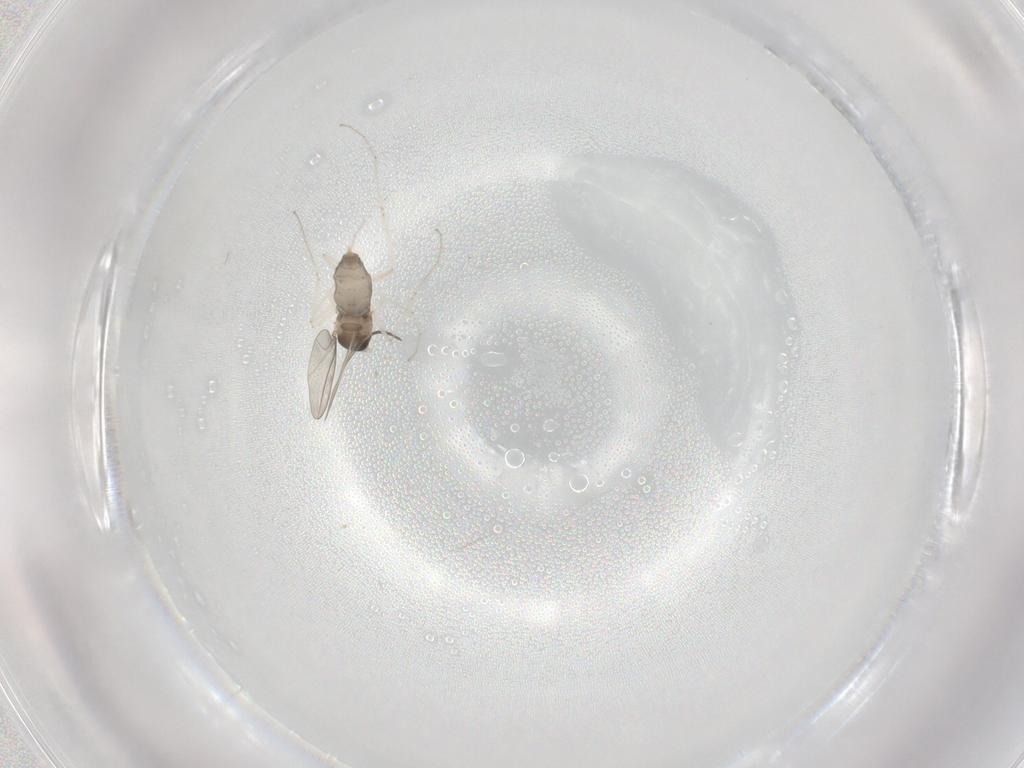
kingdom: Animalia
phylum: Arthropoda
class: Insecta
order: Diptera
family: Cecidomyiidae
